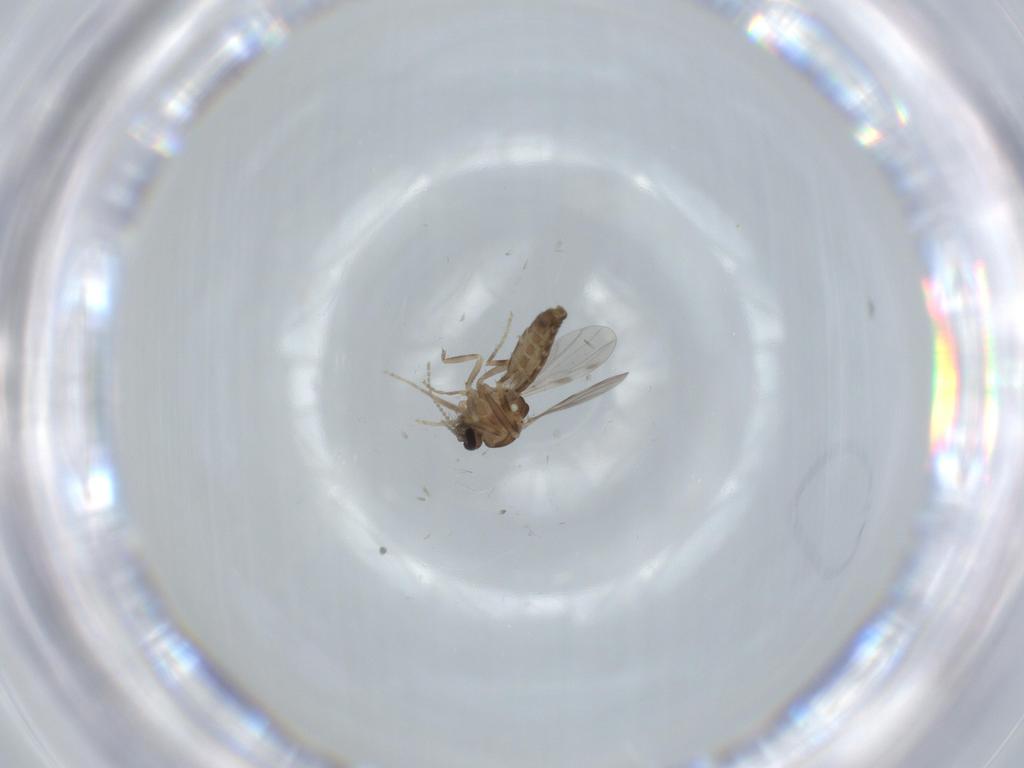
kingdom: Animalia
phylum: Arthropoda
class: Insecta
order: Diptera
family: Ceratopogonidae
